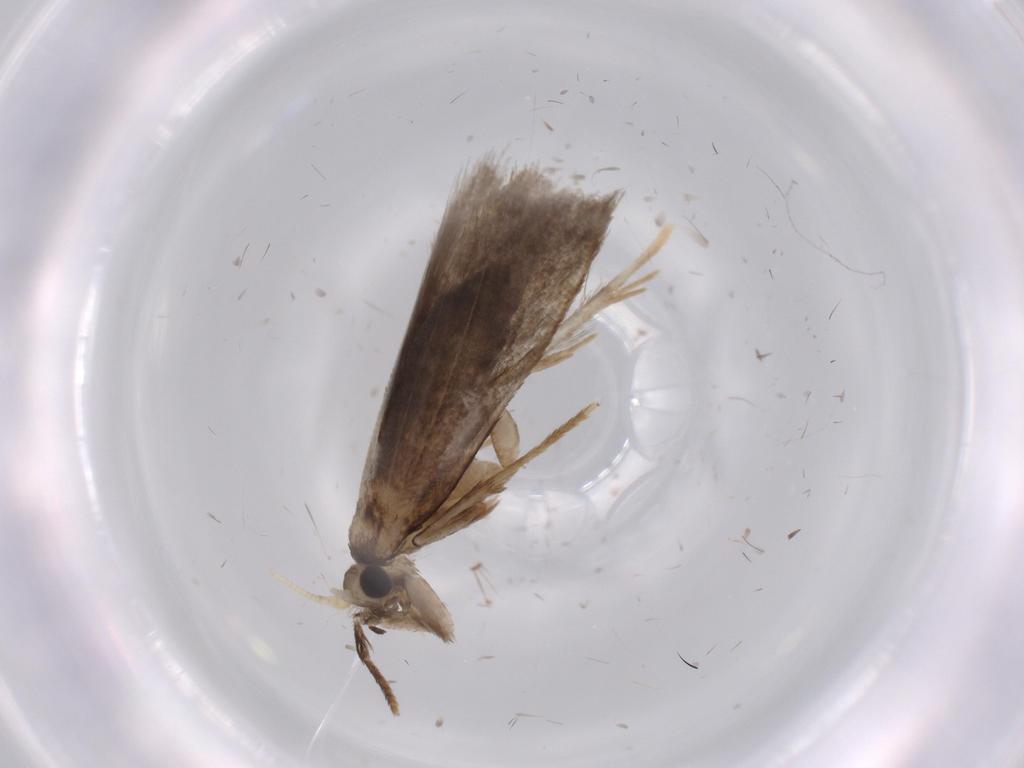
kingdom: Animalia
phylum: Arthropoda
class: Insecta
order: Lepidoptera
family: Tineidae
